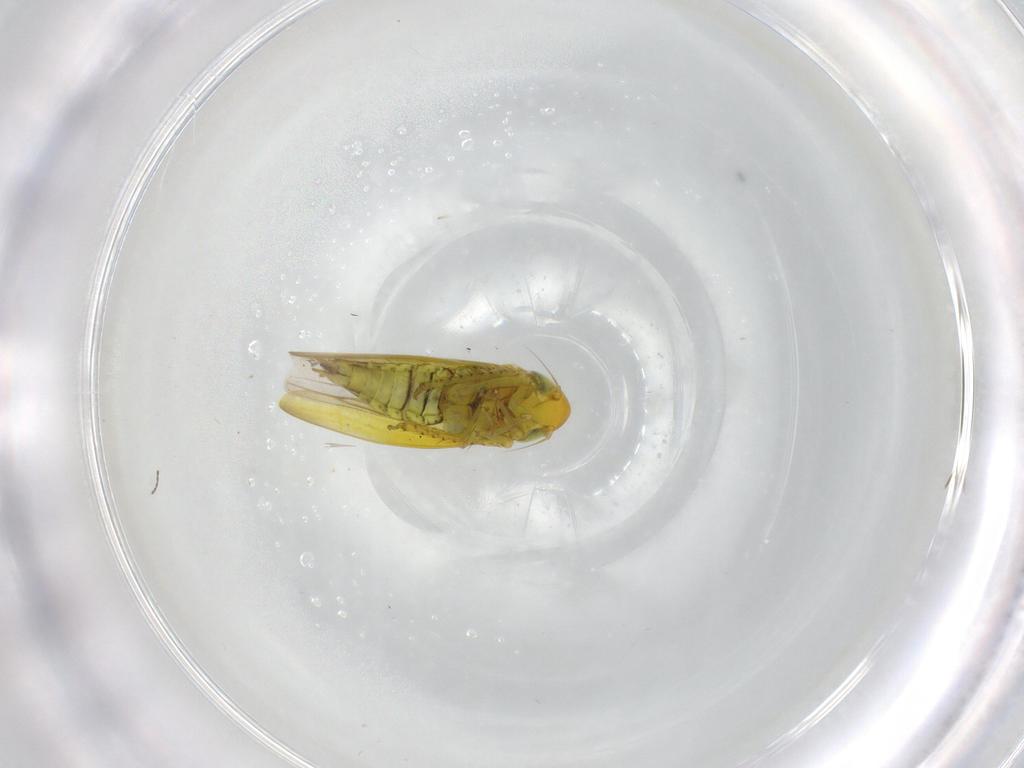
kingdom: Animalia
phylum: Arthropoda
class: Insecta
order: Hemiptera
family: Cicadellidae
